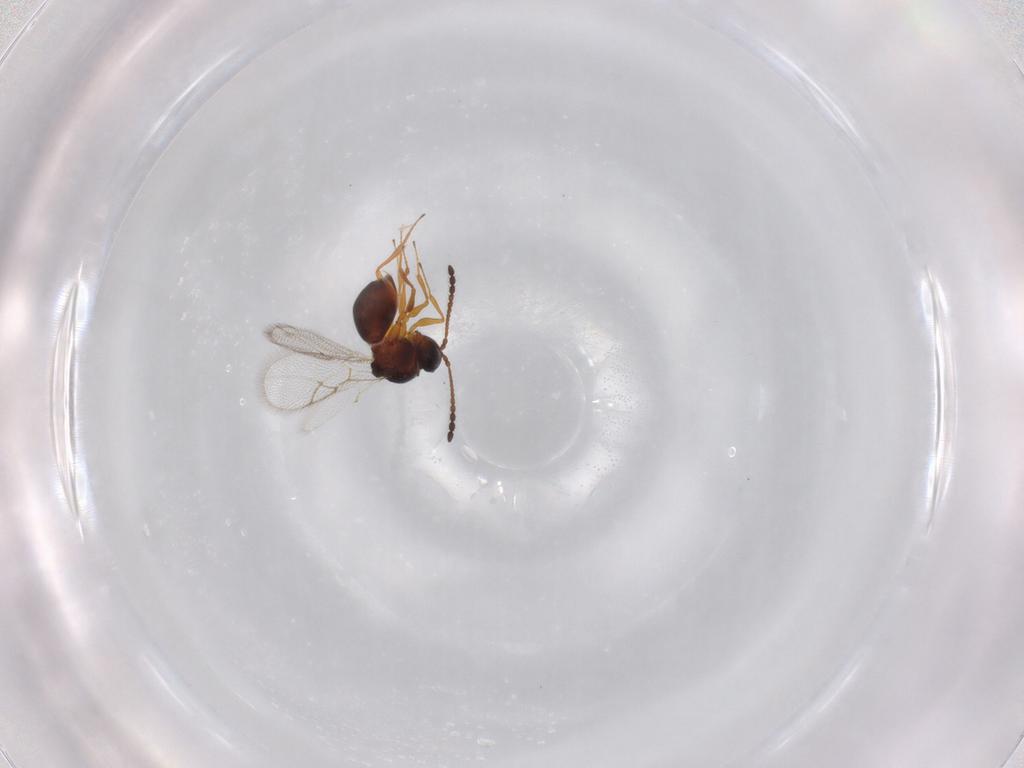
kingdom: Animalia
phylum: Arthropoda
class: Insecta
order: Hymenoptera
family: Figitidae
